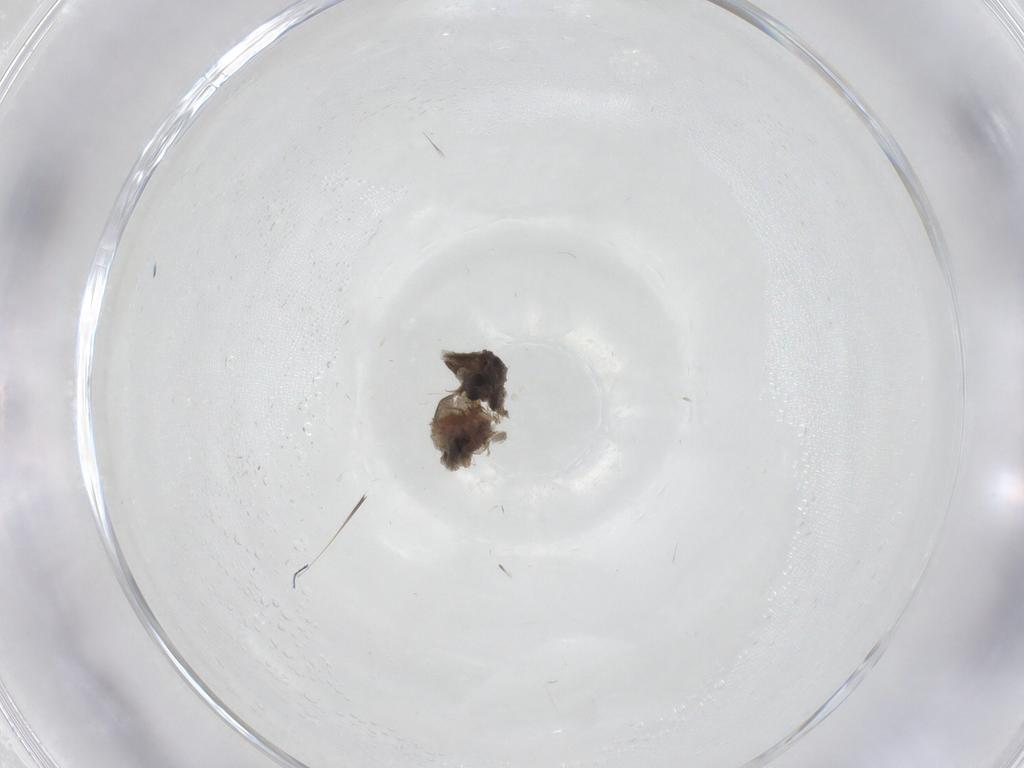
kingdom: Animalia
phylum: Arthropoda
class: Insecta
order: Diptera
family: Cecidomyiidae
